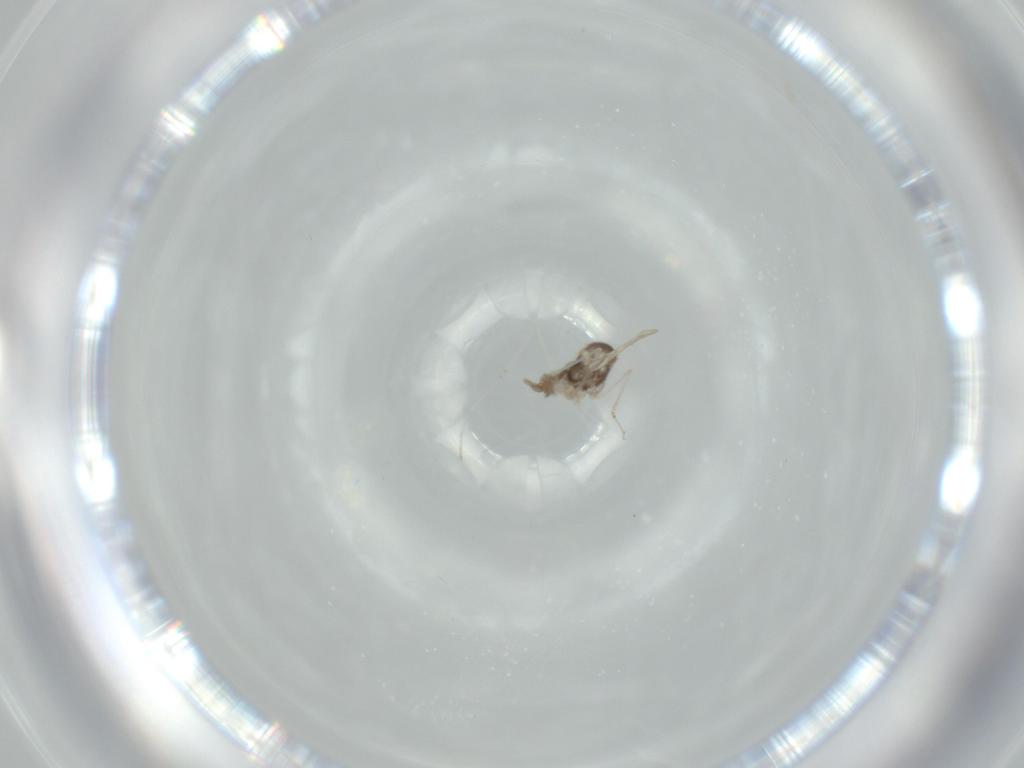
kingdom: Animalia
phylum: Arthropoda
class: Insecta
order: Diptera
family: Cecidomyiidae
